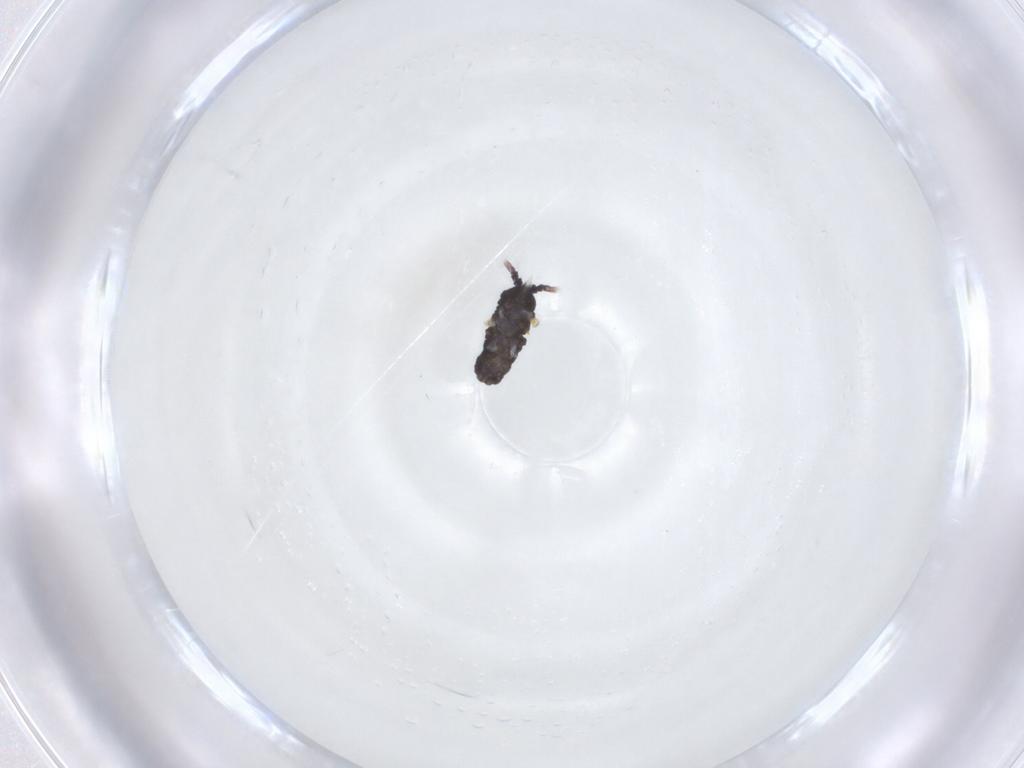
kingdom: Animalia
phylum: Arthropoda
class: Collembola
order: Poduromorpha
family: Neanuridae
